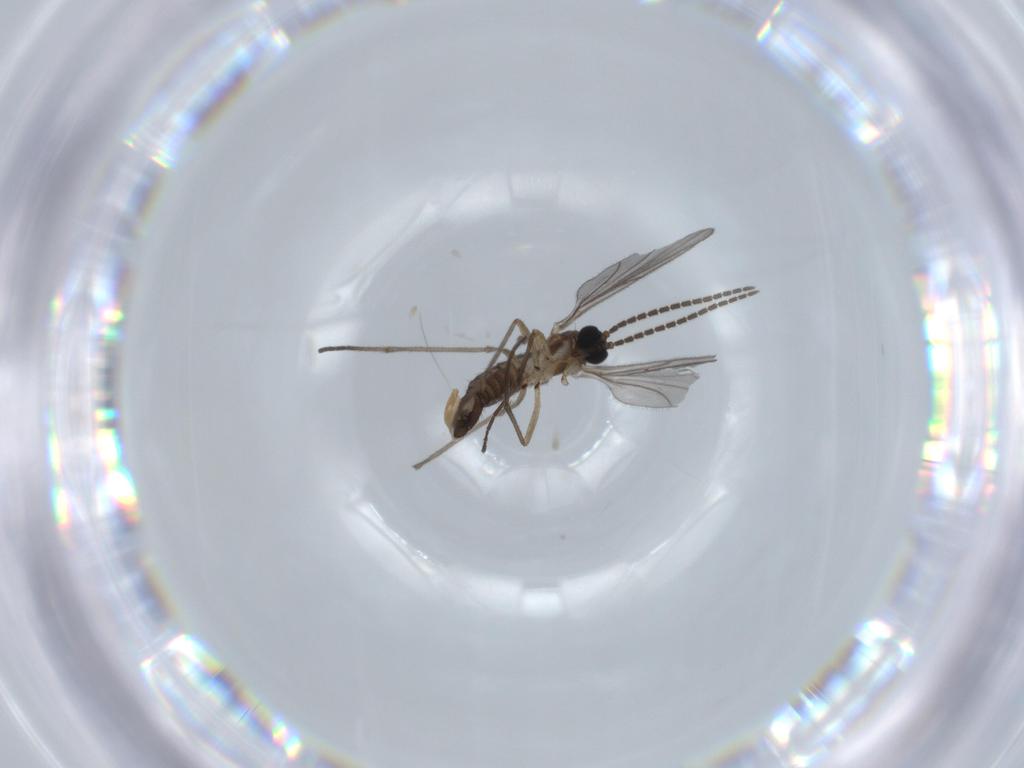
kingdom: Animalia
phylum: Arthropoda
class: Insecta
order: Diptera
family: Sciaridae
